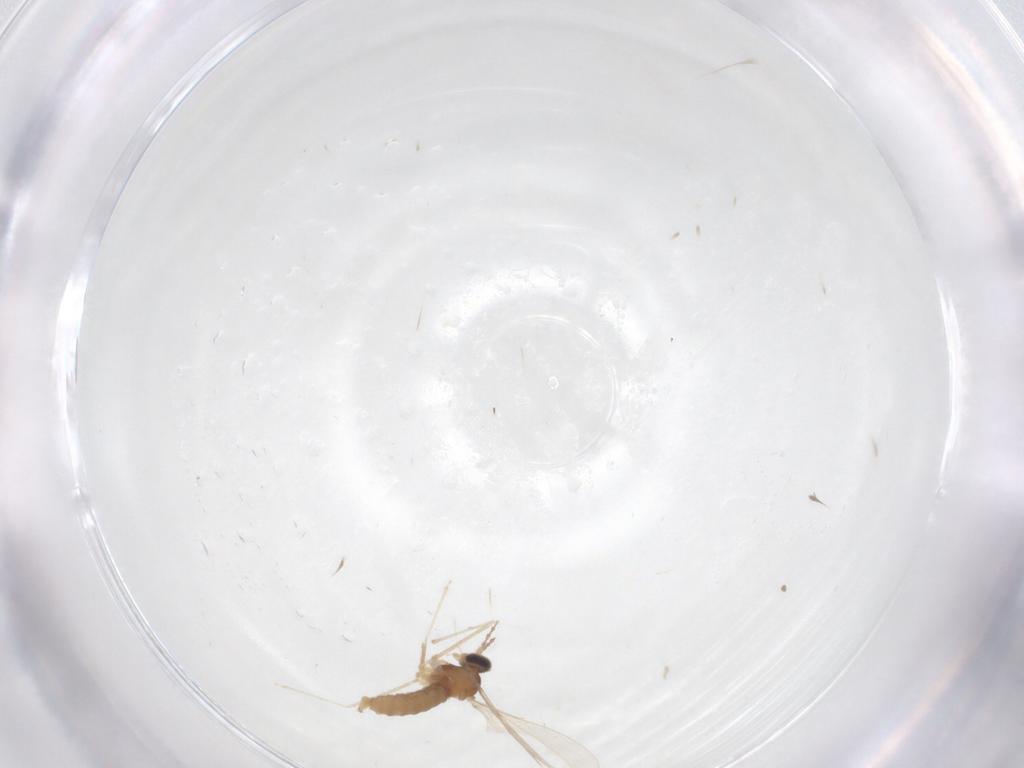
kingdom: Animalia
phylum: Arthropoda
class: Insecta
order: Diptera
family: Cecidomyiidae
